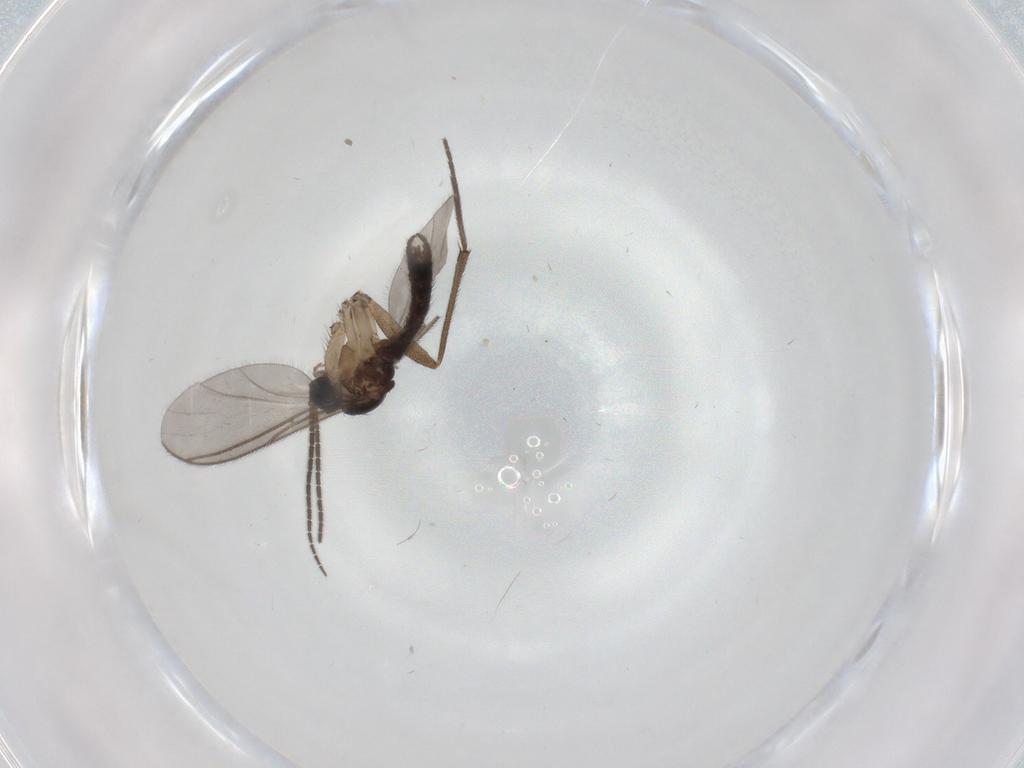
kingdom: Animalia
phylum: Arthropoda
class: Insecta
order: Diptera
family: Sciaridae
